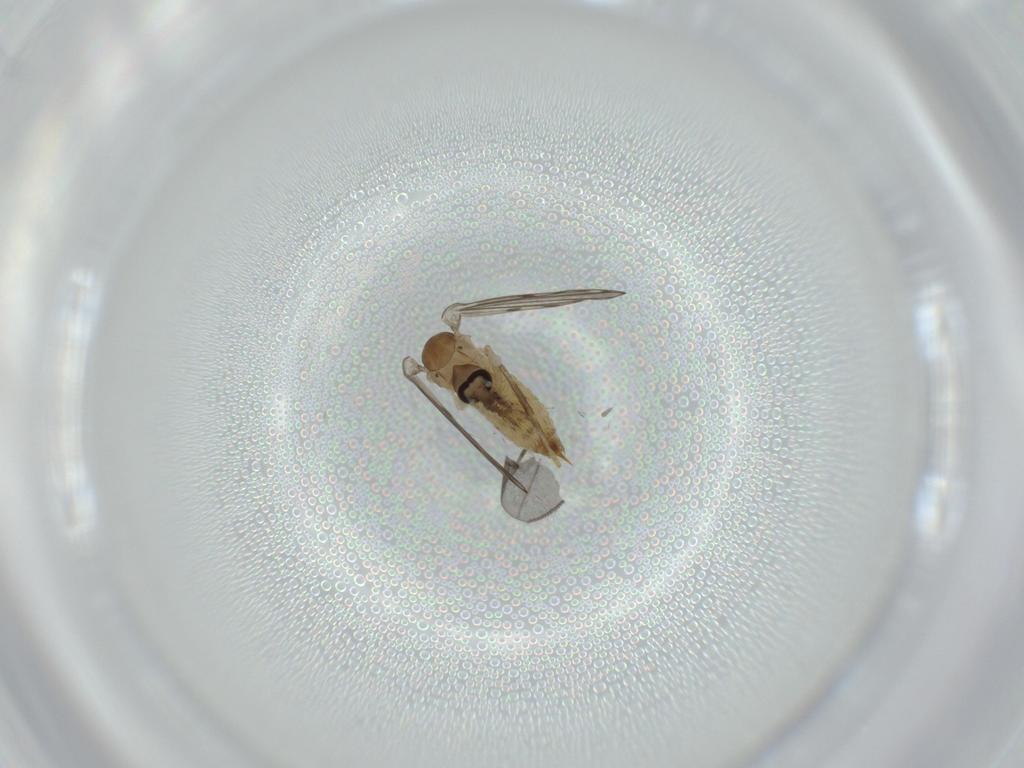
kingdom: Animalia
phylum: Arthropoda
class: Insecta
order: Diptera
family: Psychodidae
